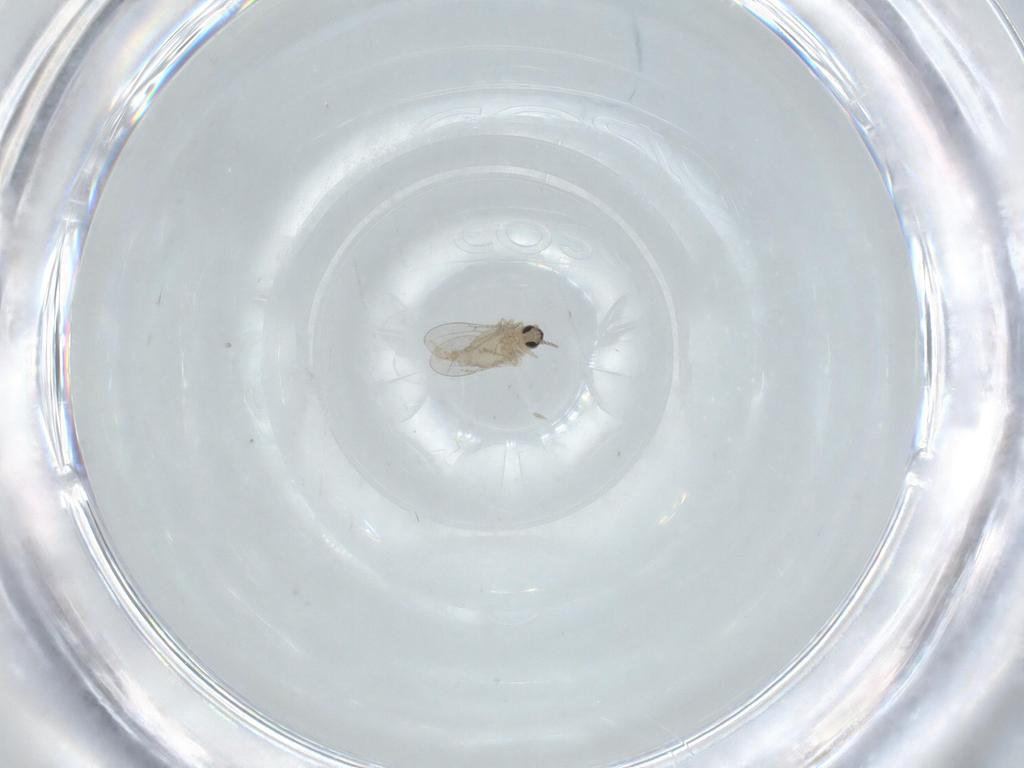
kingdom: Animalia
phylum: Arthropoda
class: Insecta
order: Diptera
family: Cecidomyiidae
